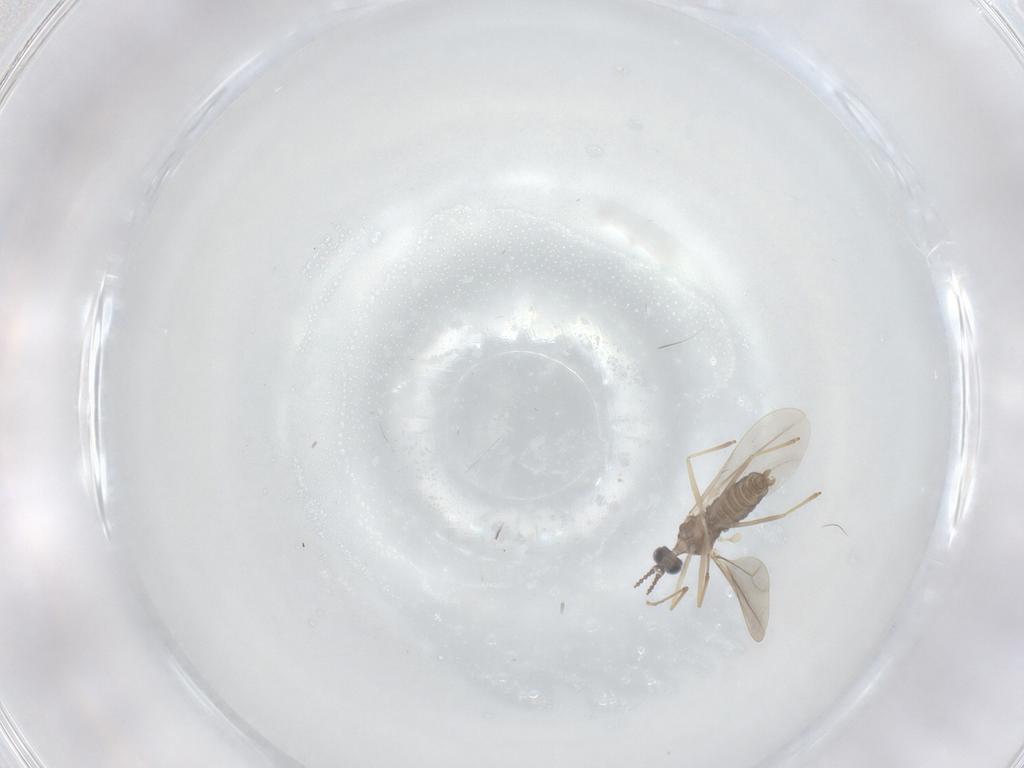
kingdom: Animalia
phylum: Arthropoda
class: Insecta
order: Diptera
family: Cecidomyiidae
